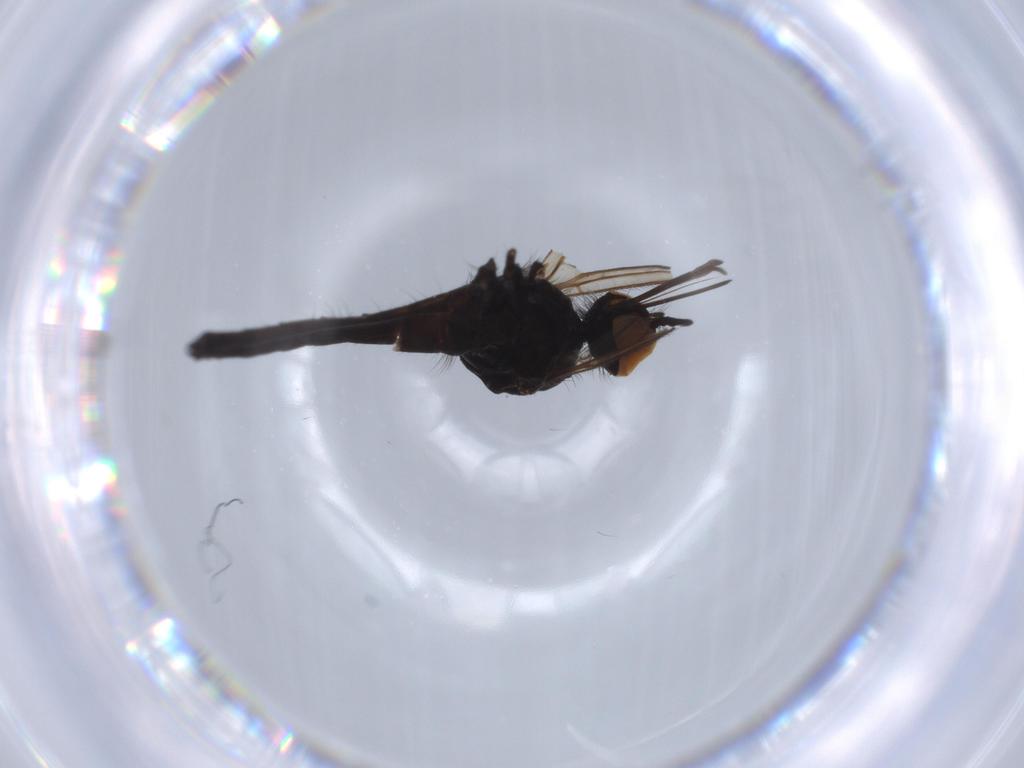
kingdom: Animalia
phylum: Arthropoda
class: Insecta
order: Diptera
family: Empididae
